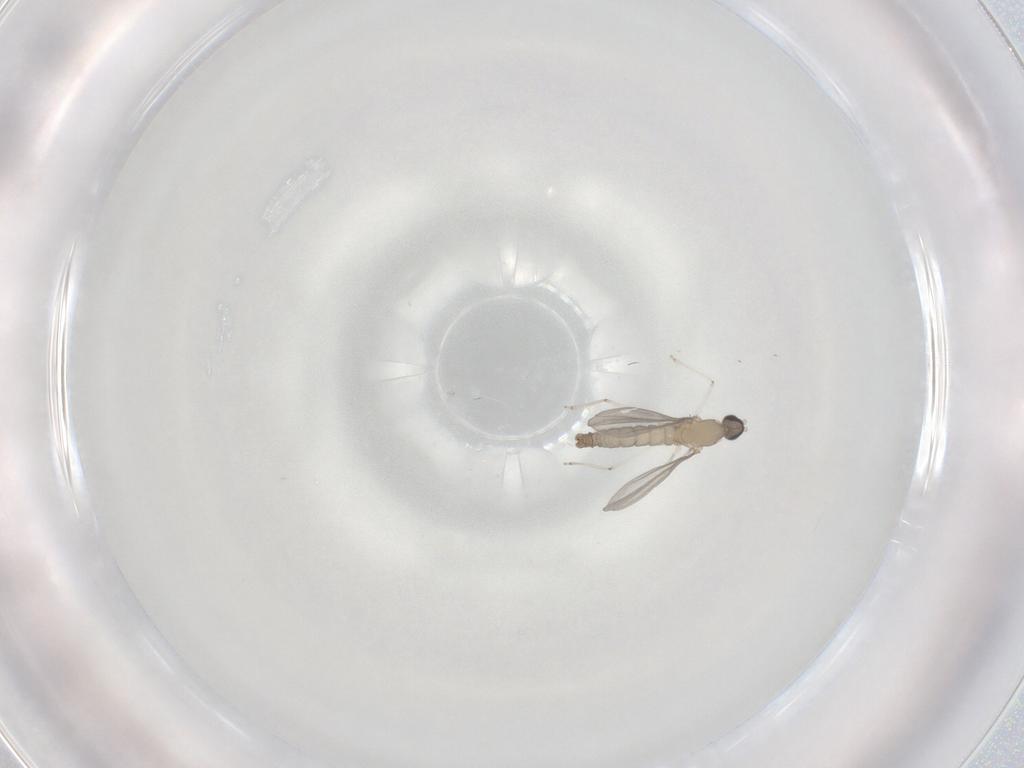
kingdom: Animalia
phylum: Arthropoda
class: Insecta
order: Diptera
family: Cecidomyiidae
